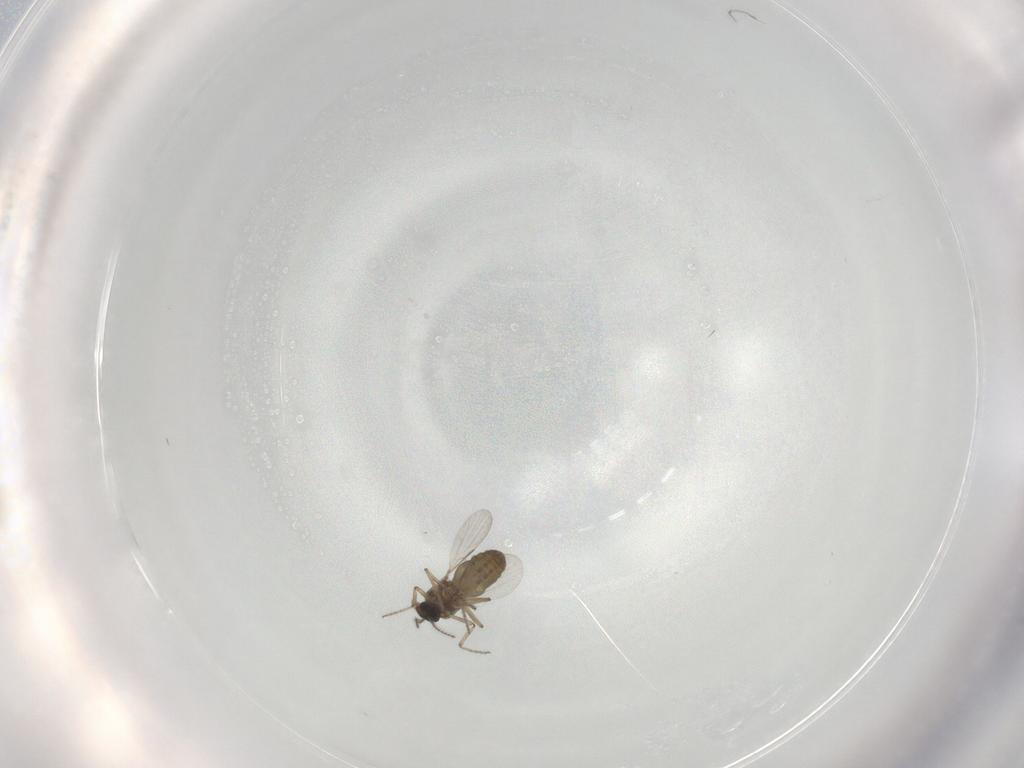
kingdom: Animalia
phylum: Arthropoda
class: Insecta
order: Diptera
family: Ceratopogonidae
